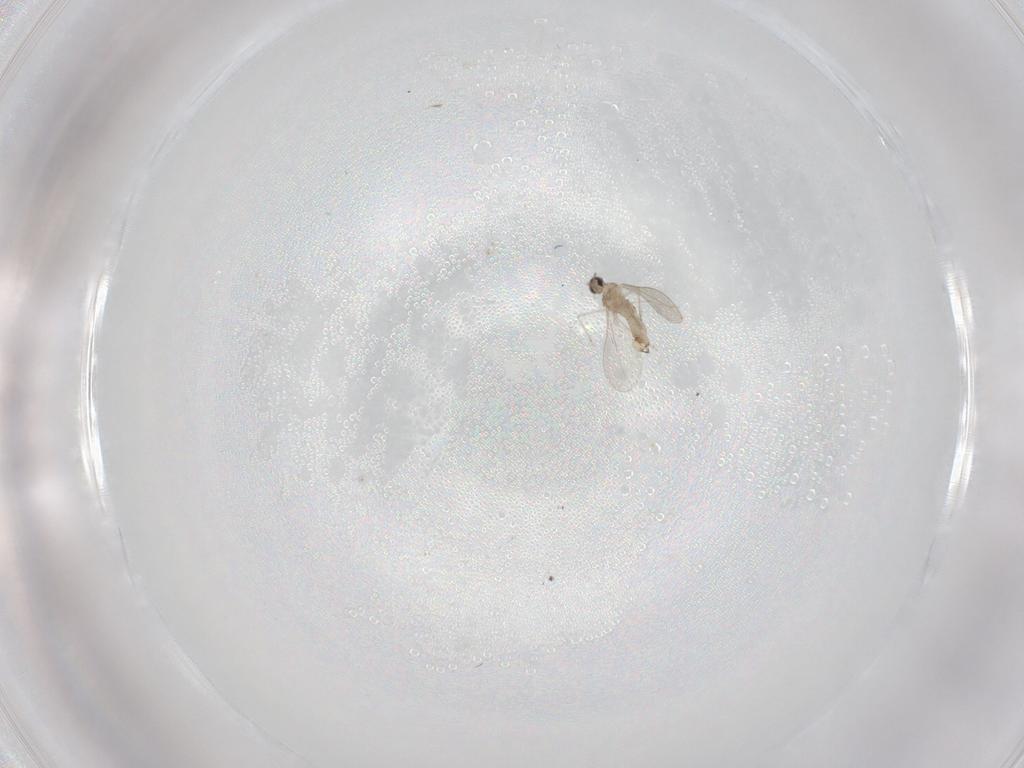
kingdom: Animalia
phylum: Arthropoda
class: Insecta
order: Diptera
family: Cecidomyiidae
